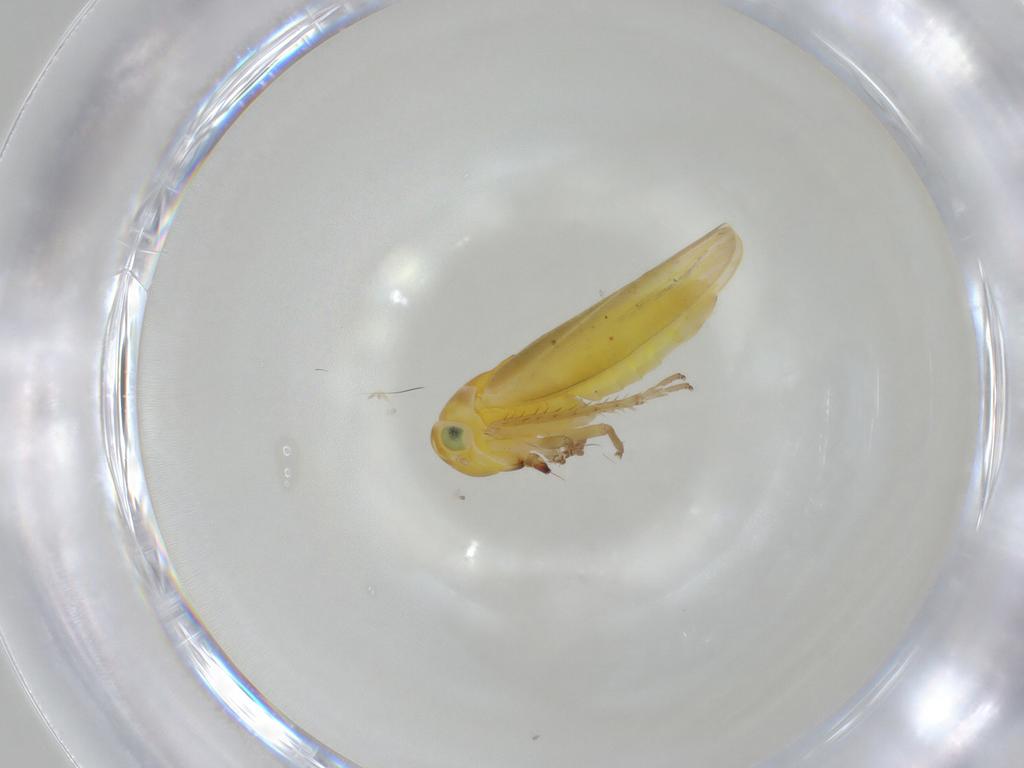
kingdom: Animalia
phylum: Arthropoda
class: Insecta
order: Hemiptera
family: Cicadellidae
